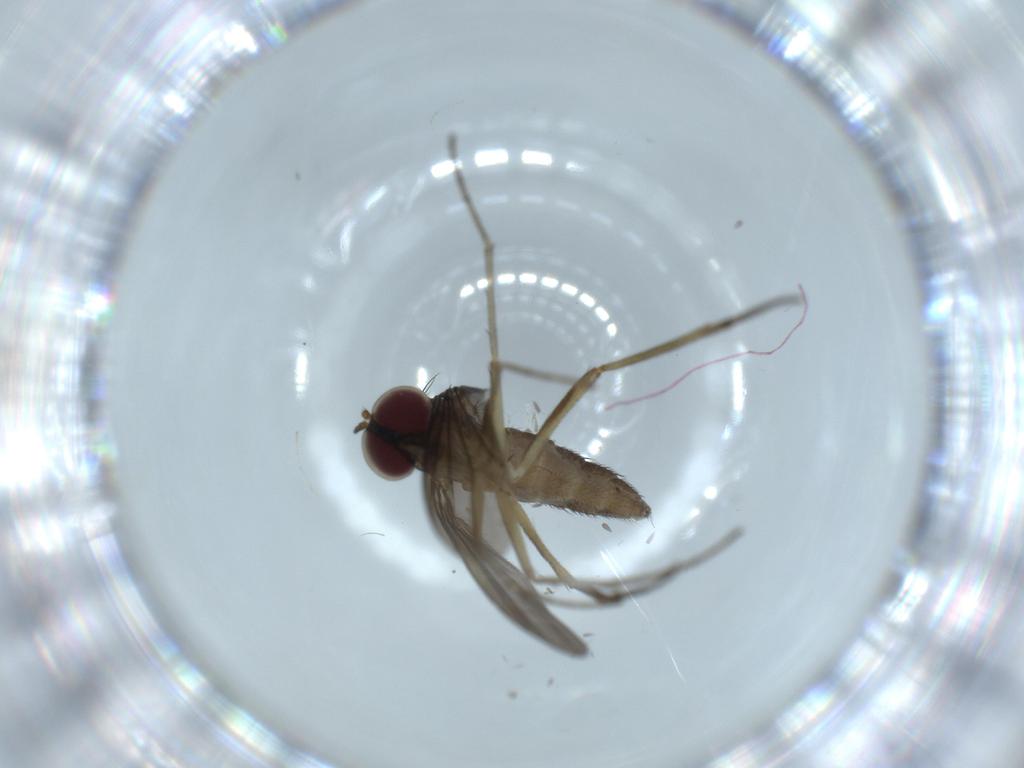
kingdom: Animalia
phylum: Arthropoda
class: Insecta
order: Diptera
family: Dolichopodidae
